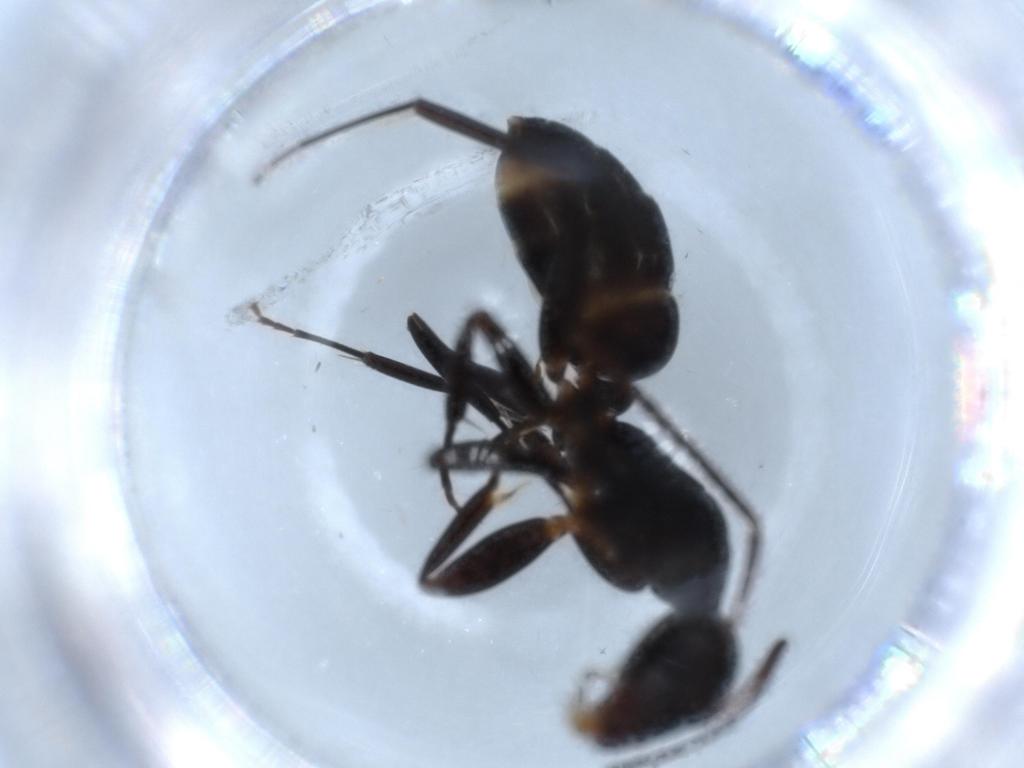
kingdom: Animalia
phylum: Arthropoda
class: Insecta
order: Hymenoptera
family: Formicidae
